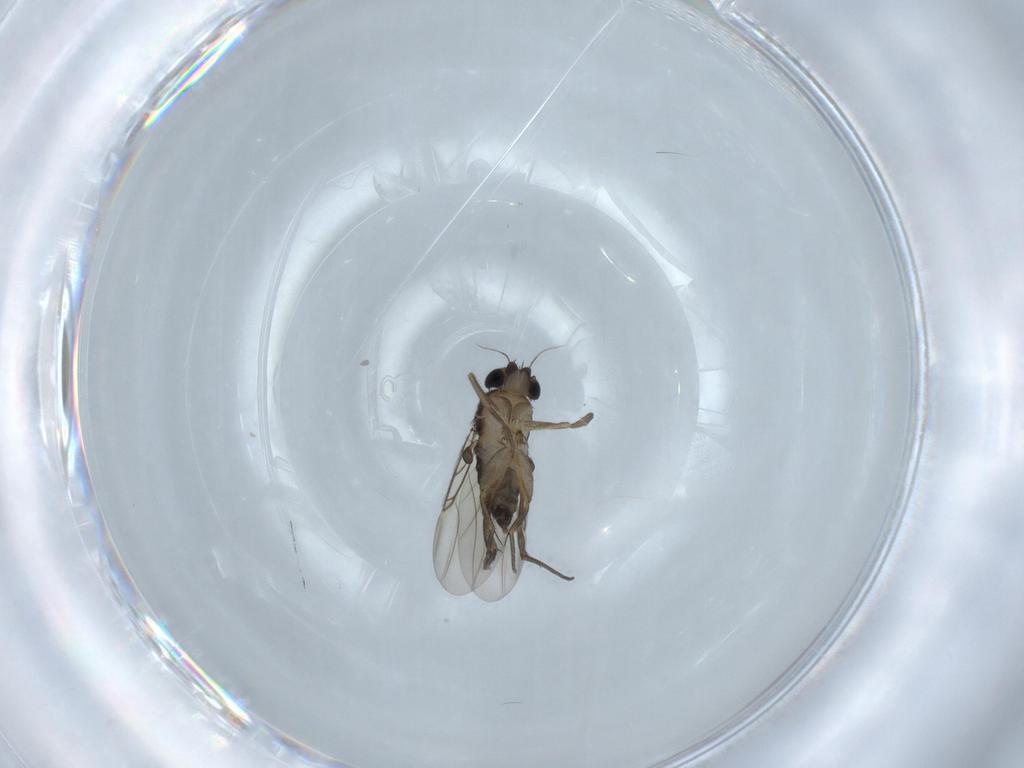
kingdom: Animalia
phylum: Arthropoda
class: Insecta
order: Diptera
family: Phoridae
